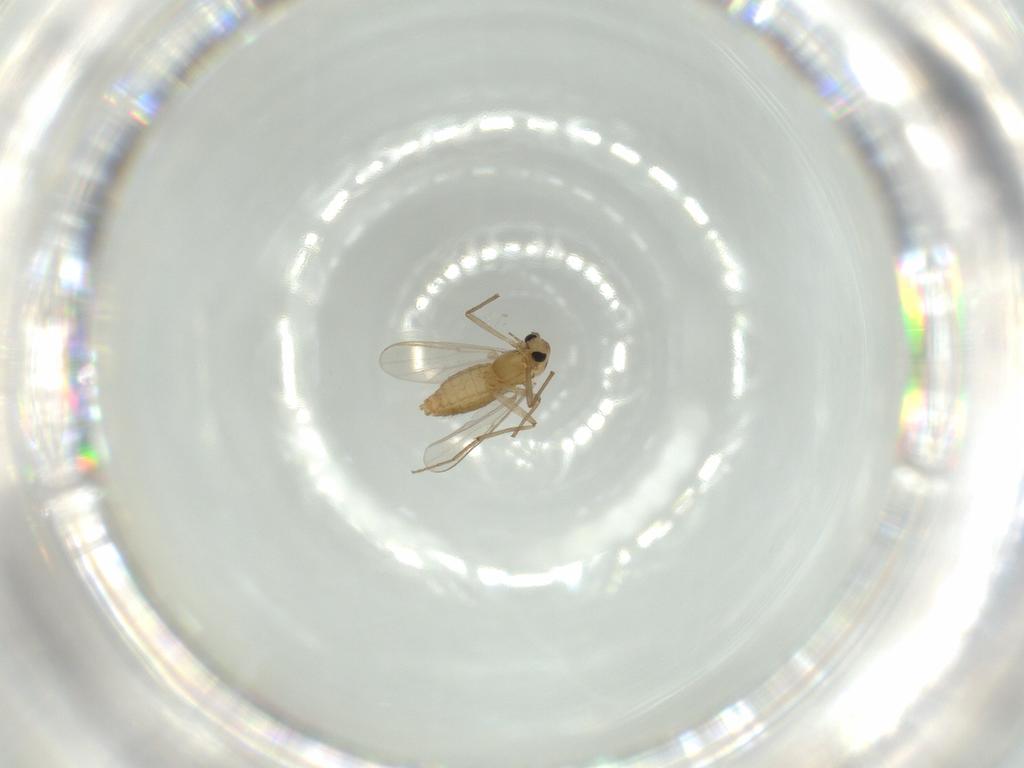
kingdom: Animalia
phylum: Arthropoda
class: Insecta
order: Diptera
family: Chironomidae
